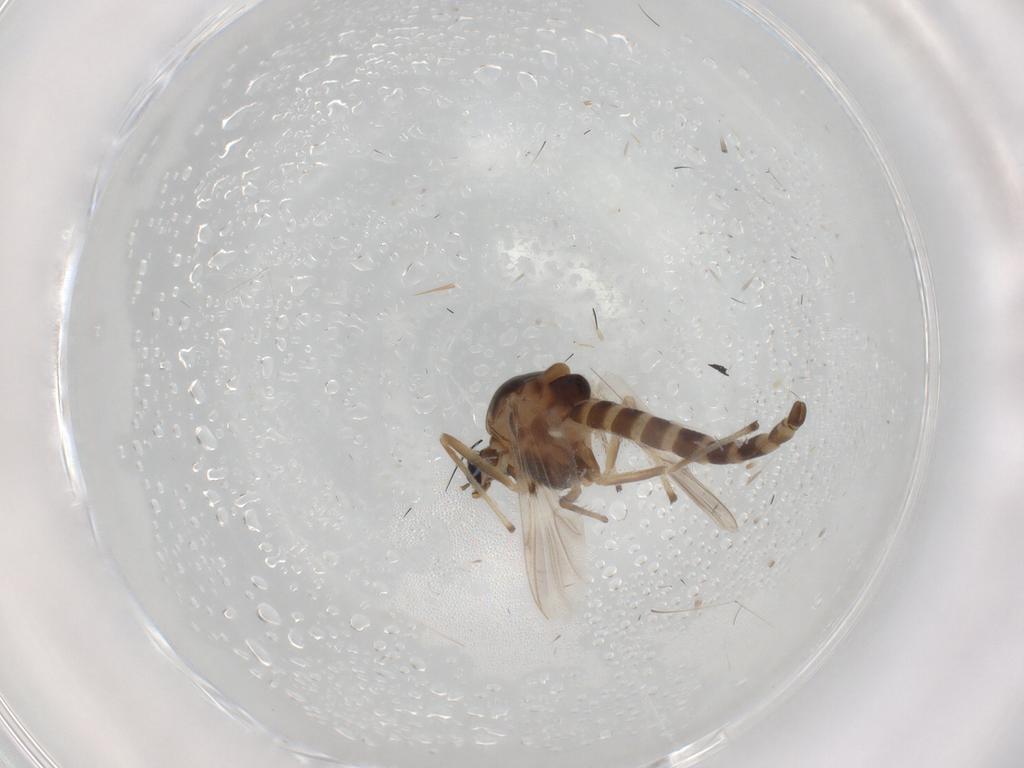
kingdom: Animalia
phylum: Arthropoda
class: Insecta
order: Diptera
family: Chironomidae
